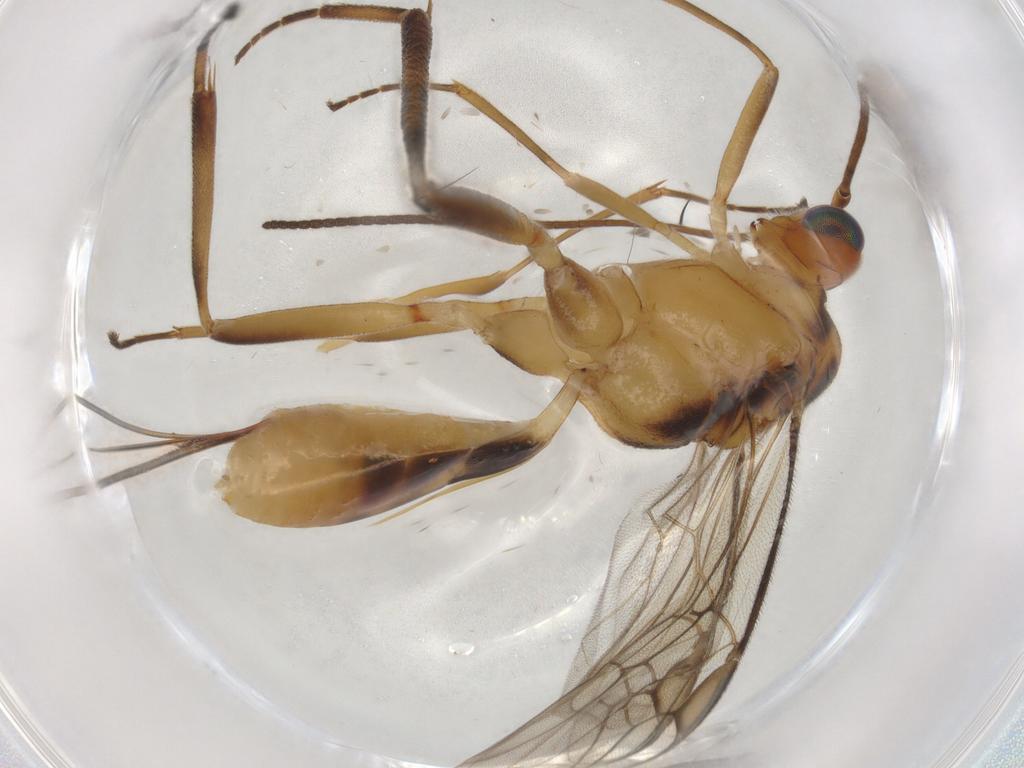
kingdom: Animalia
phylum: Arthropoda
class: Insecta
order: Hymenoptera
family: Braconidae
